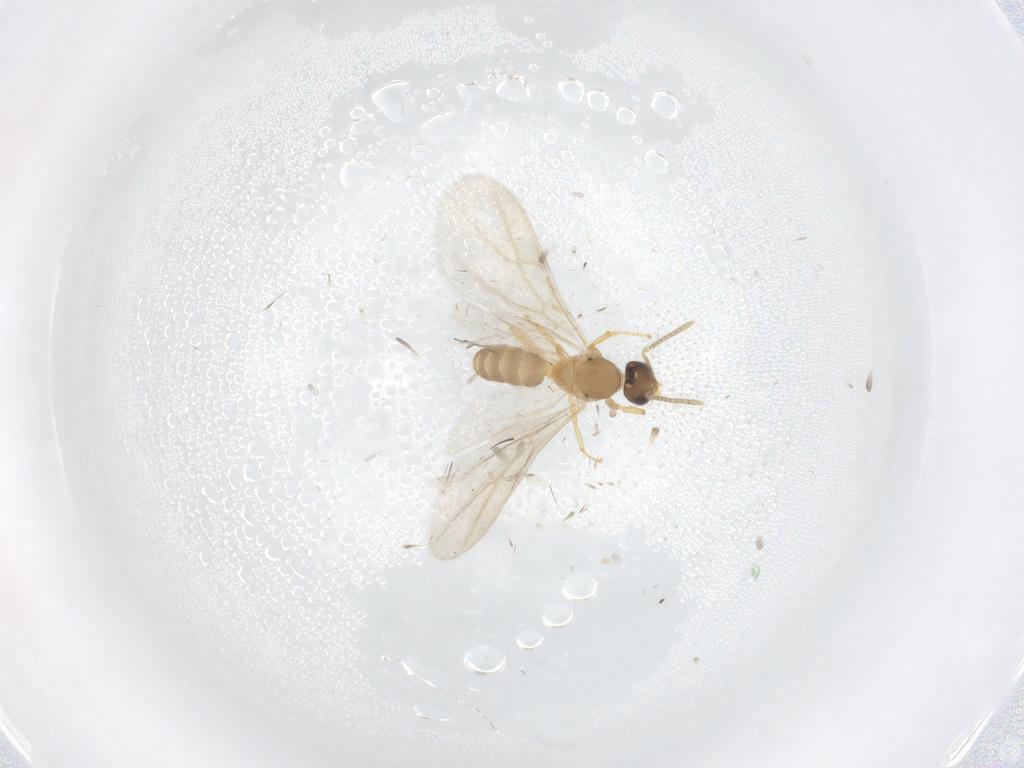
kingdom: Animalia
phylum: Arthropoda
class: Insecta
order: Hymenoptera
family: Formicidae
